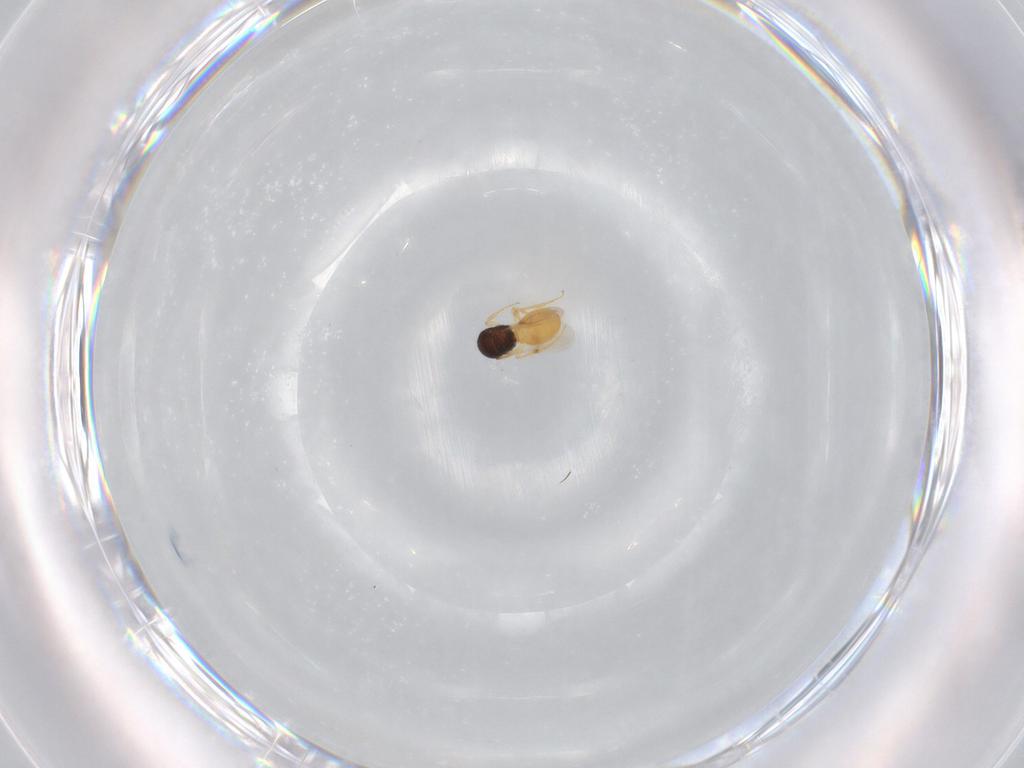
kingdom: Animalia
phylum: Arthropoda
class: Insecta
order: Hymenoptera
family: Scelionidae
